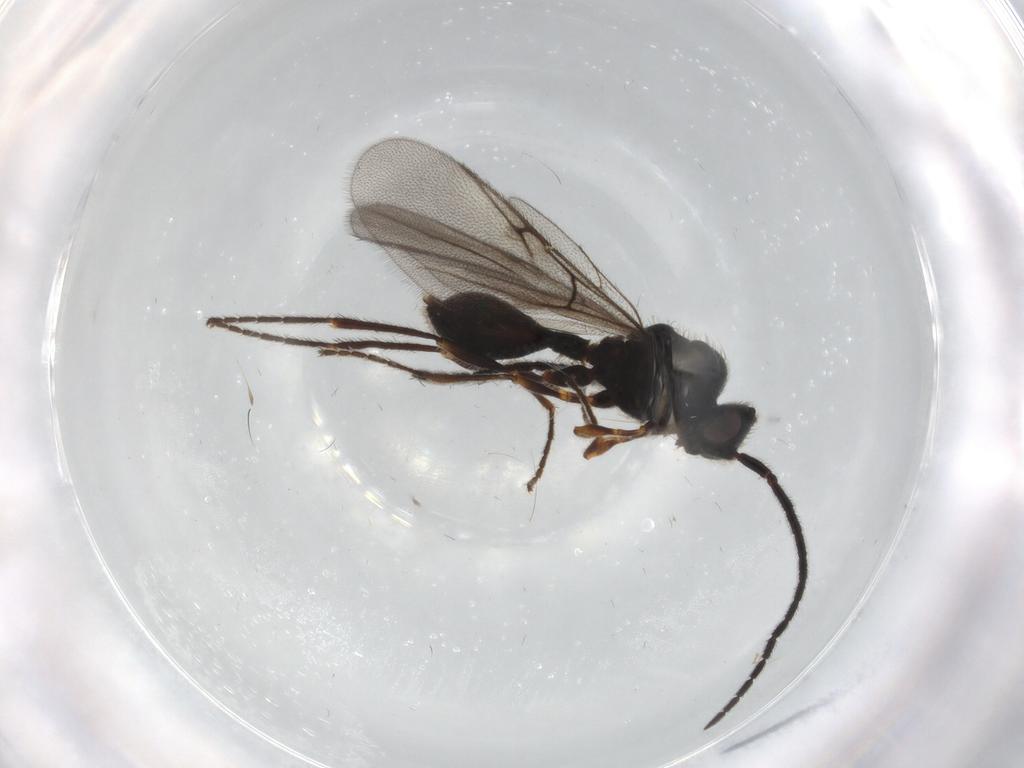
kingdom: Animalia
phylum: Arthropoda
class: Insecta
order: Hymenoptera
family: Diapriidae
